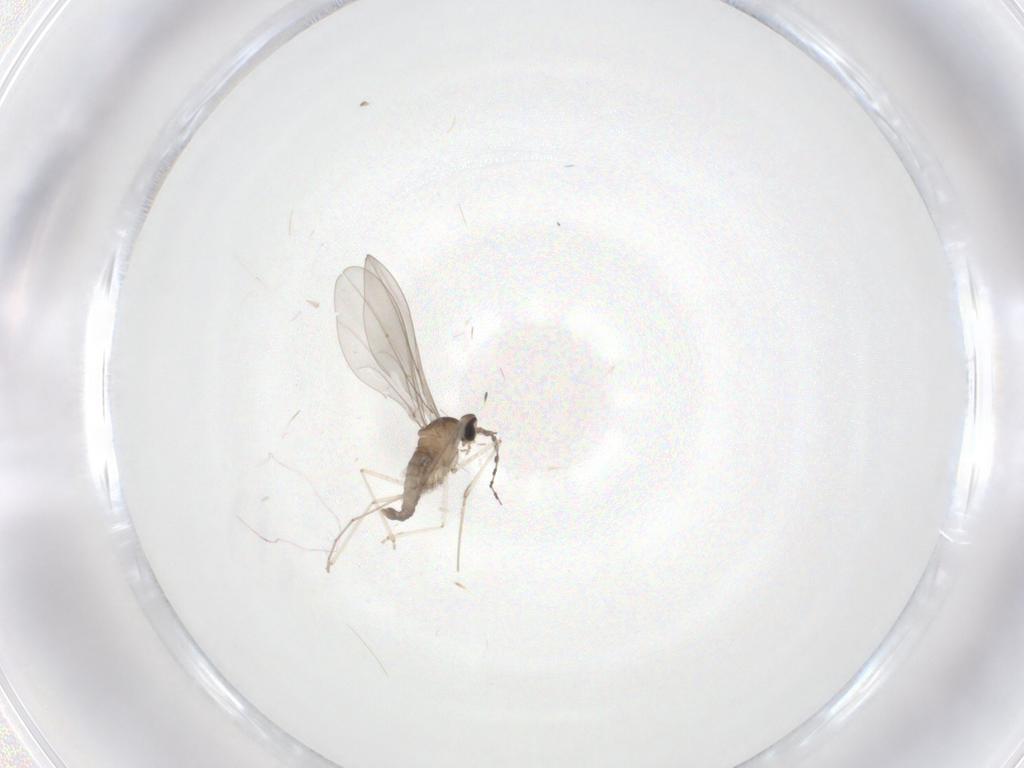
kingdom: Animalia
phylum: Arthropoda
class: Insecta
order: Diptera
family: Cecidomyiidae
